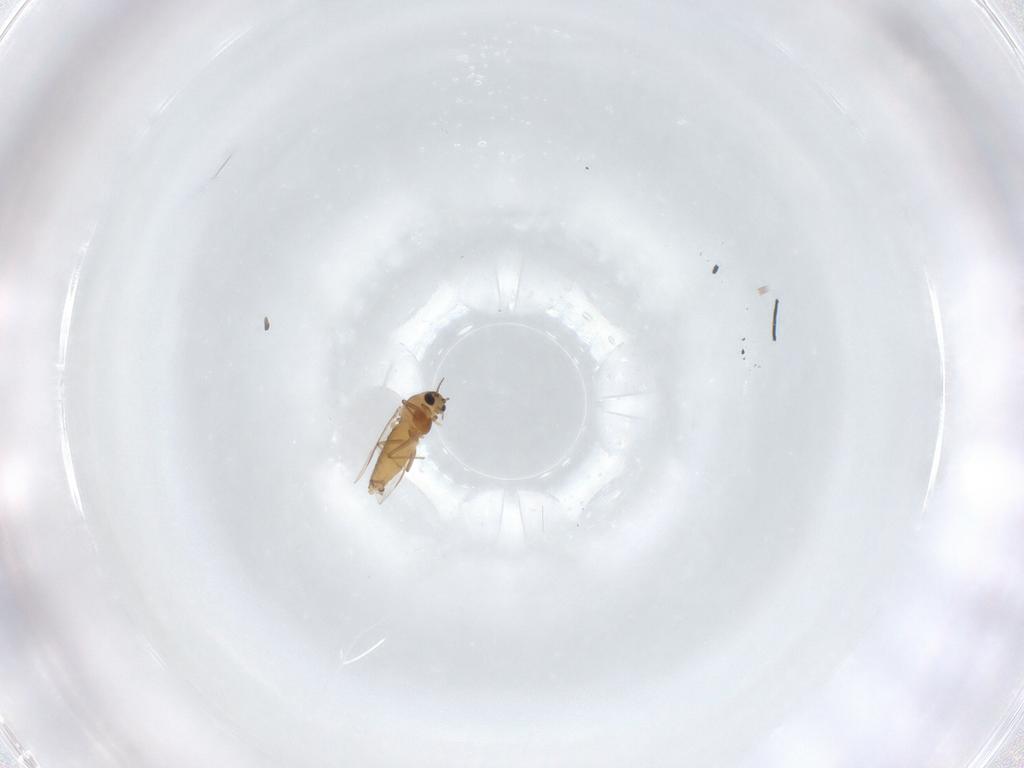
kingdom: Animalia
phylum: Arthropoda
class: Insecta
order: Diptera
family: Chironomidae
